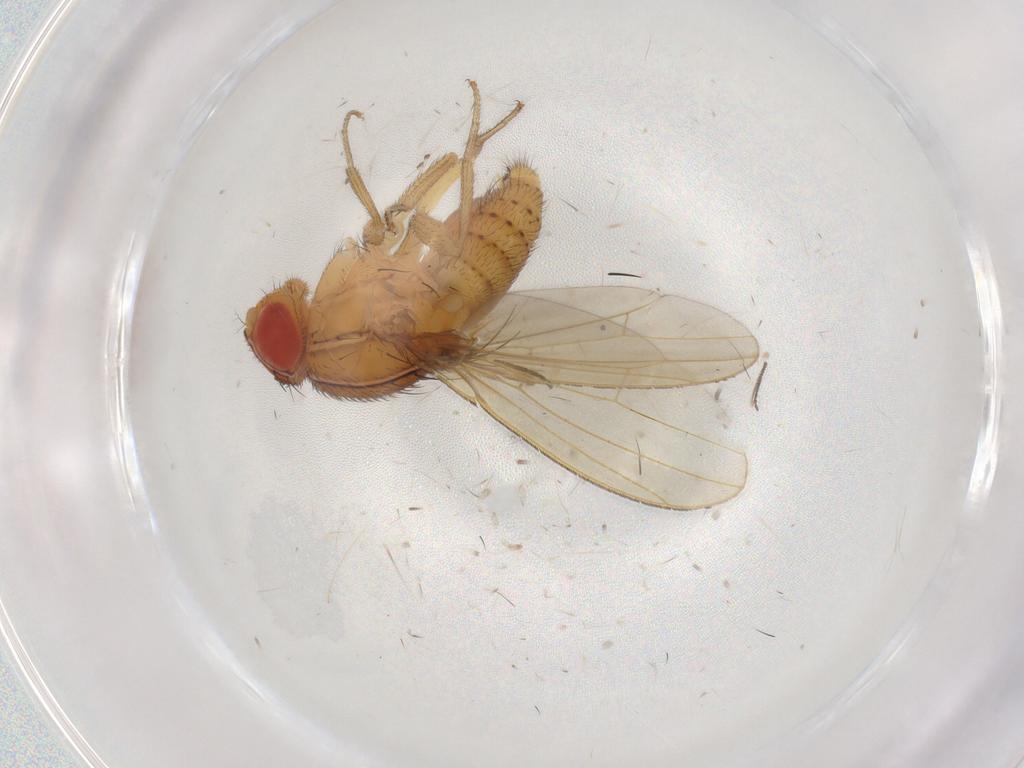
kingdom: Animalia
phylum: Arthropoda
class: Insecta
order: Diptera
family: Drosophilidae
